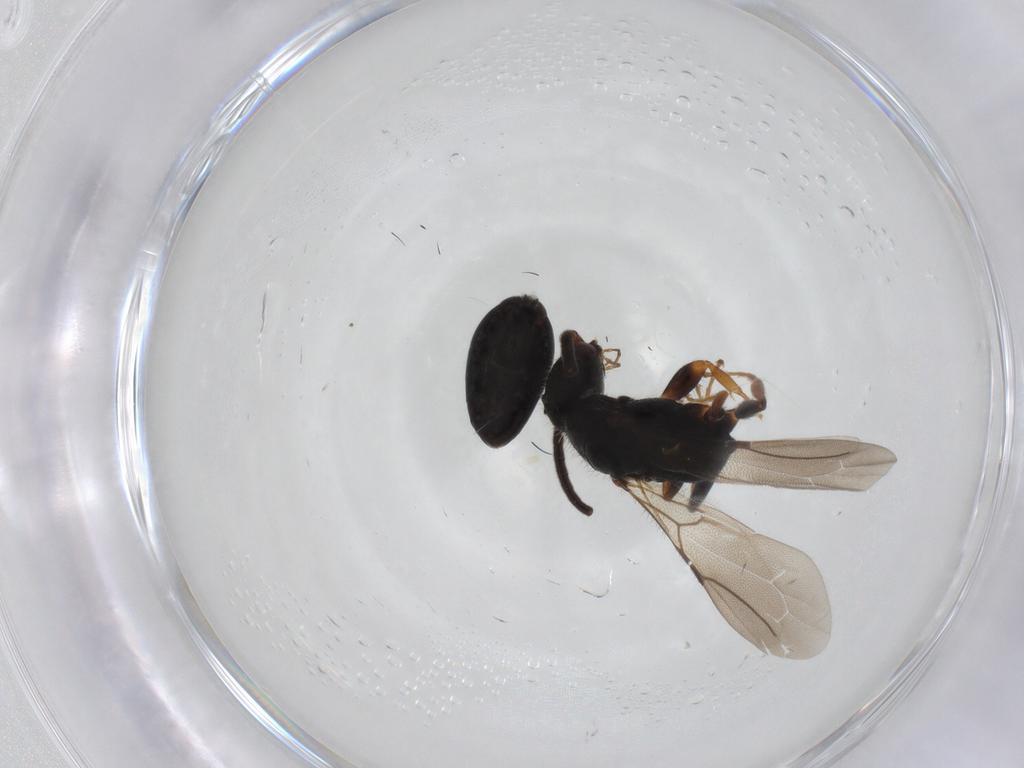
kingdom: Animalia
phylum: Arthropoda
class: Insecta
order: Hymenoptera
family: Bethylidae
